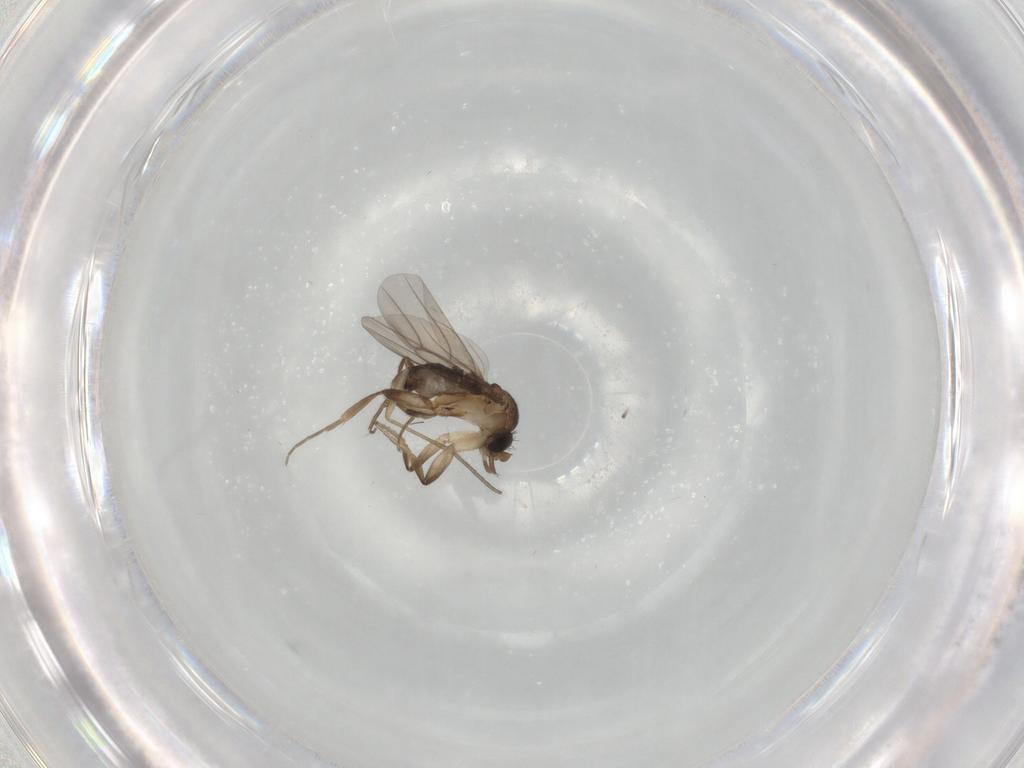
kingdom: Animalia
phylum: Arthropoda
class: Insecta
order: Diptera
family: Phoridae
